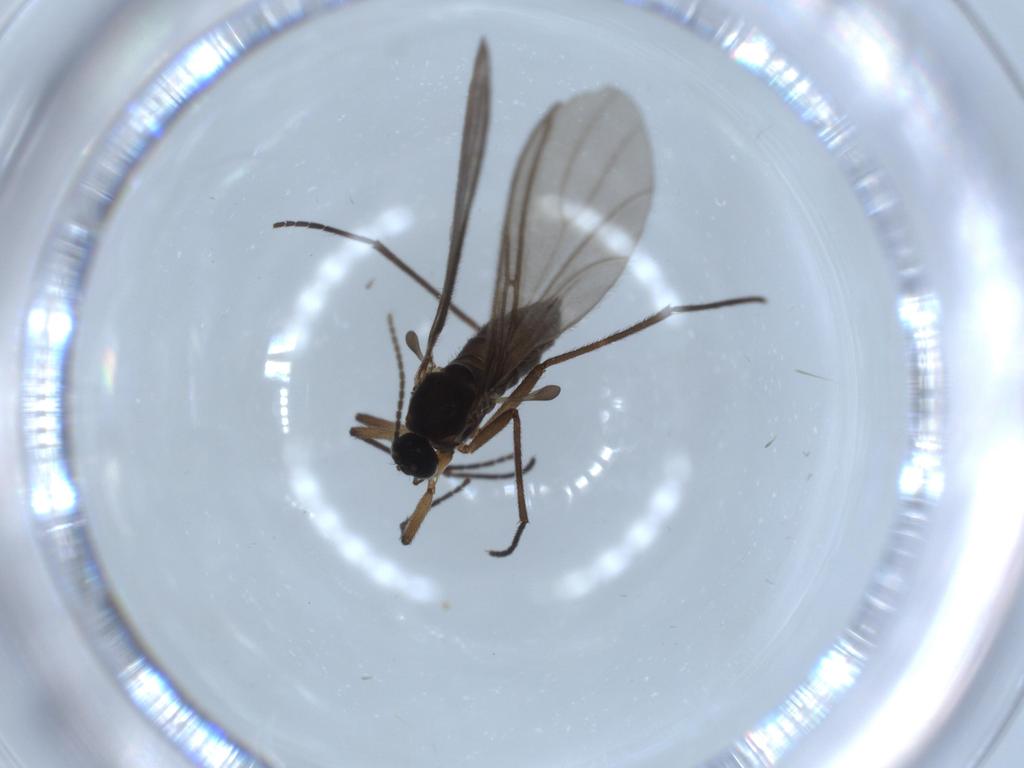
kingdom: Animalia
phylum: Arthropoda
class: Insecta
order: Diptera
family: Sciaridae
